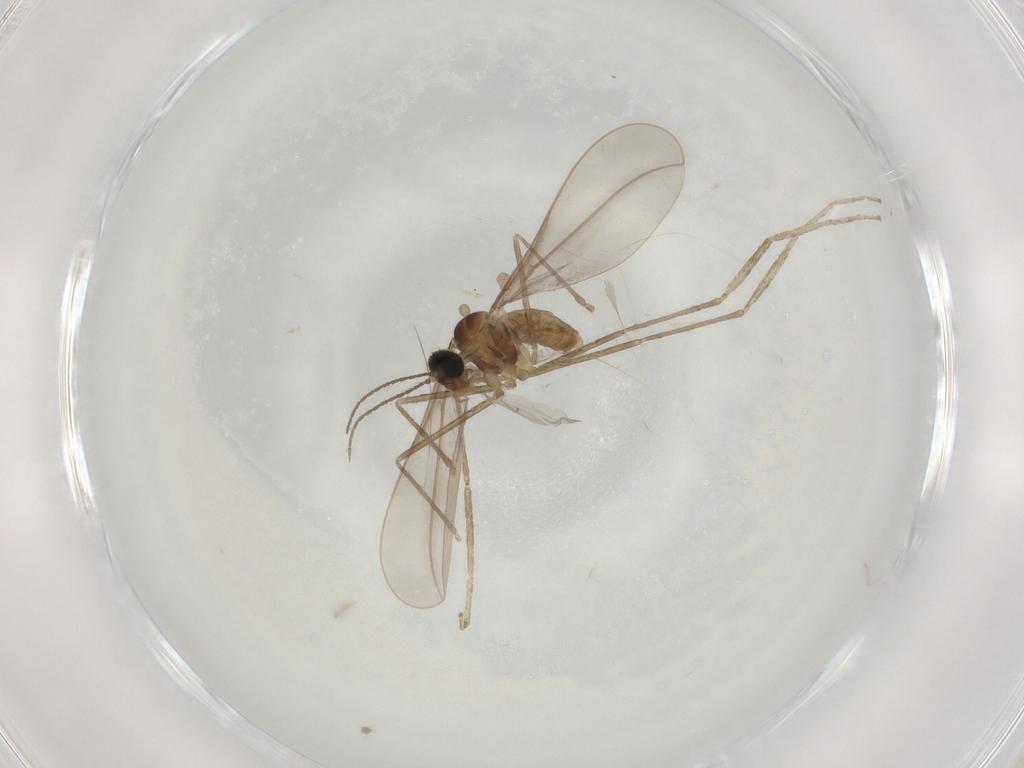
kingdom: Animalia
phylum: Arthropoda
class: Insecta
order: Diptera
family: Cecidomyiidae
